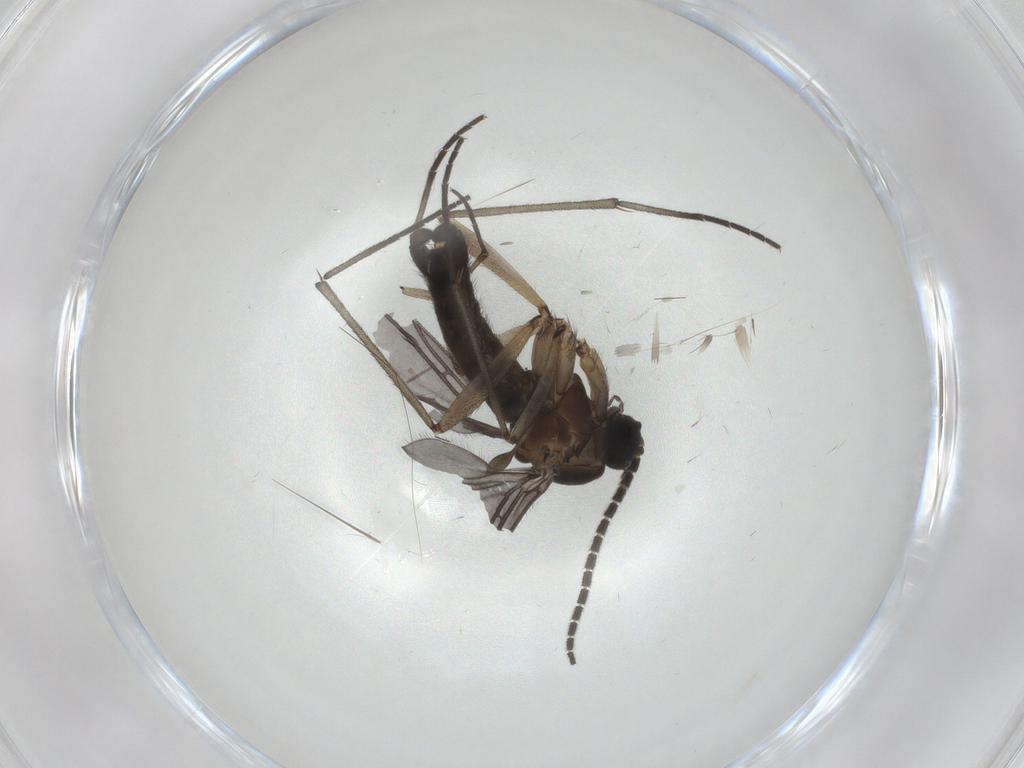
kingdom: Animalia
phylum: Arthropoda
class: Insecta
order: Diptera
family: Sciaridae
